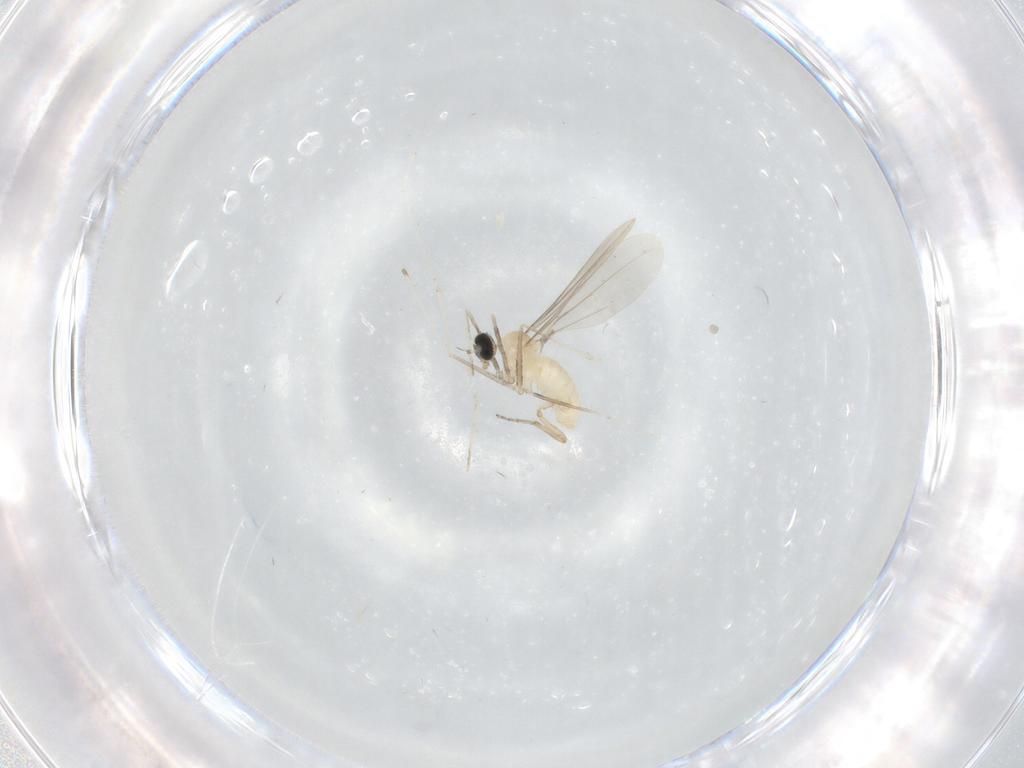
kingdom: Animalia
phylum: Arthropoda
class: Insecta
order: Diptera
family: Cecidomyiidae
